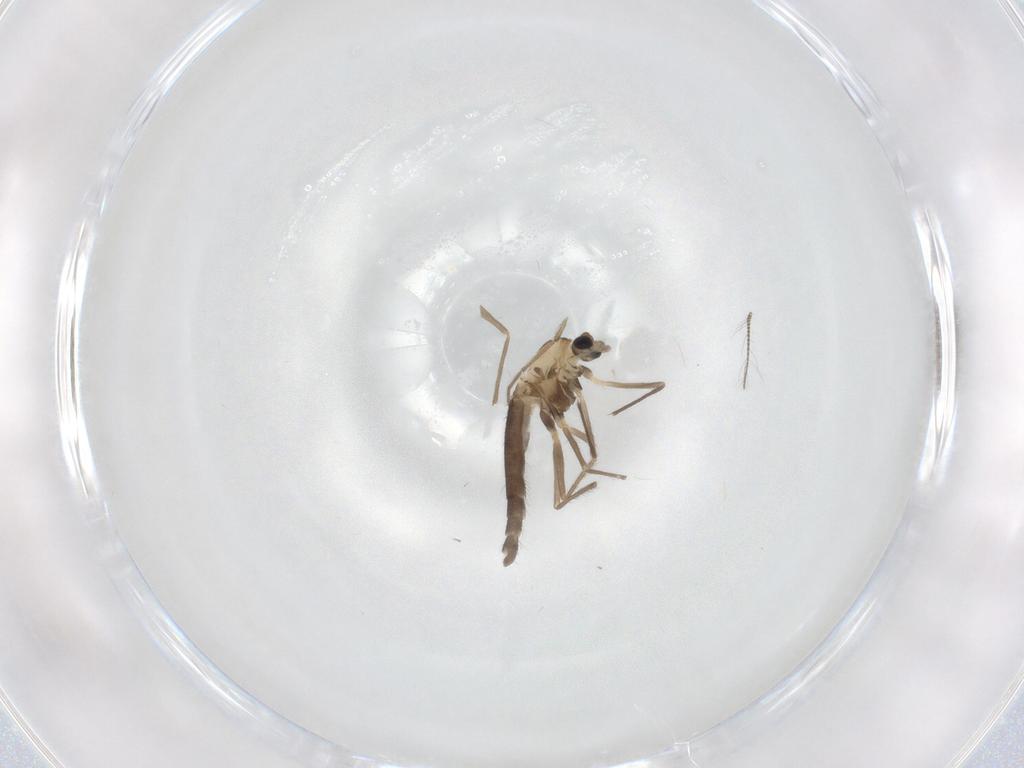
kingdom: Animalia
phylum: Arthropoda
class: Insecta
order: Diptera
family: Chironomidae
